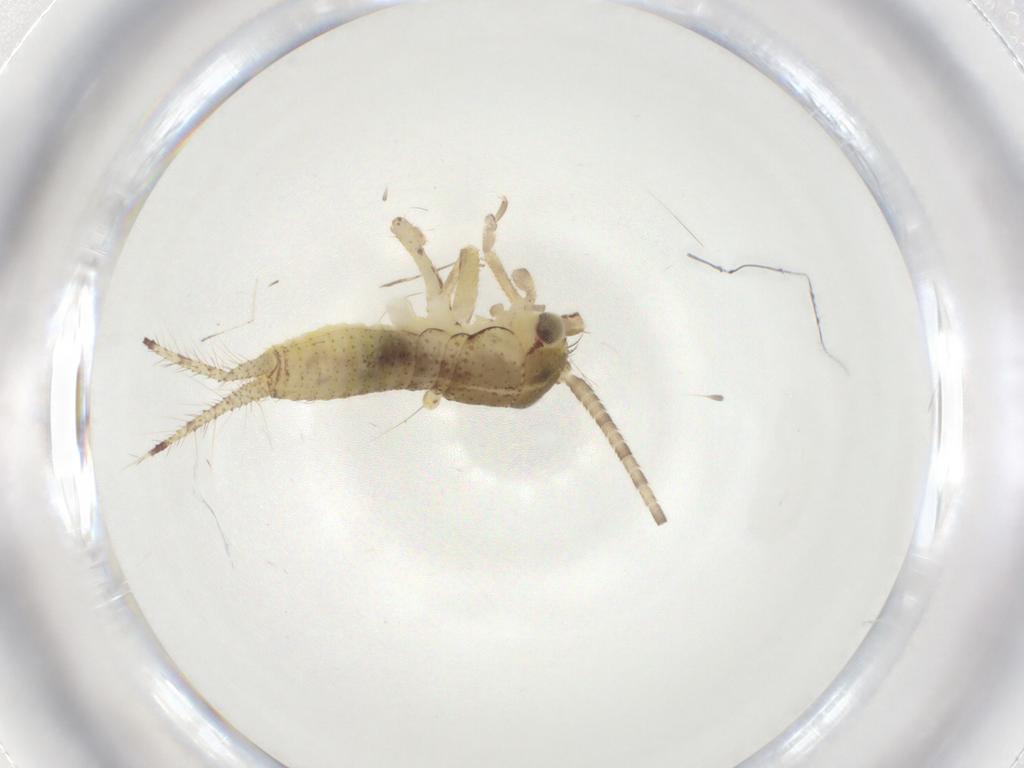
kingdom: Animalia
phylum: Arthropoda
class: Insecta
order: Orthoptera
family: Gryllidae
